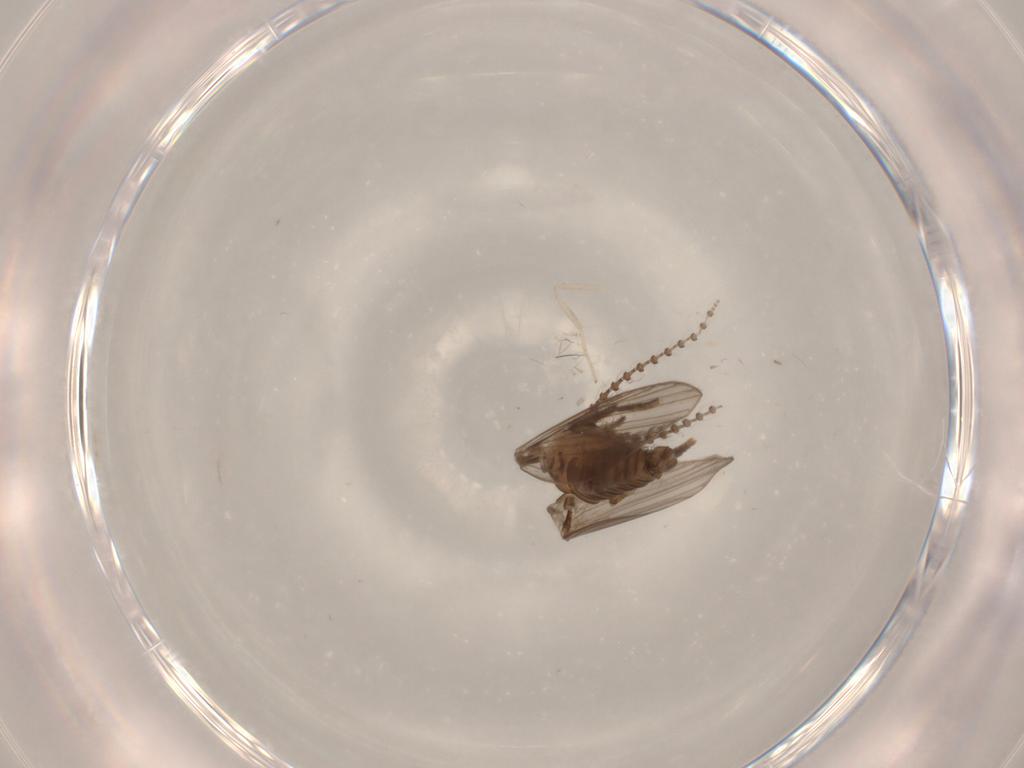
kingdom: Animalia
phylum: Arthropoda
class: Insecta
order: Diptera
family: Psychodidae
